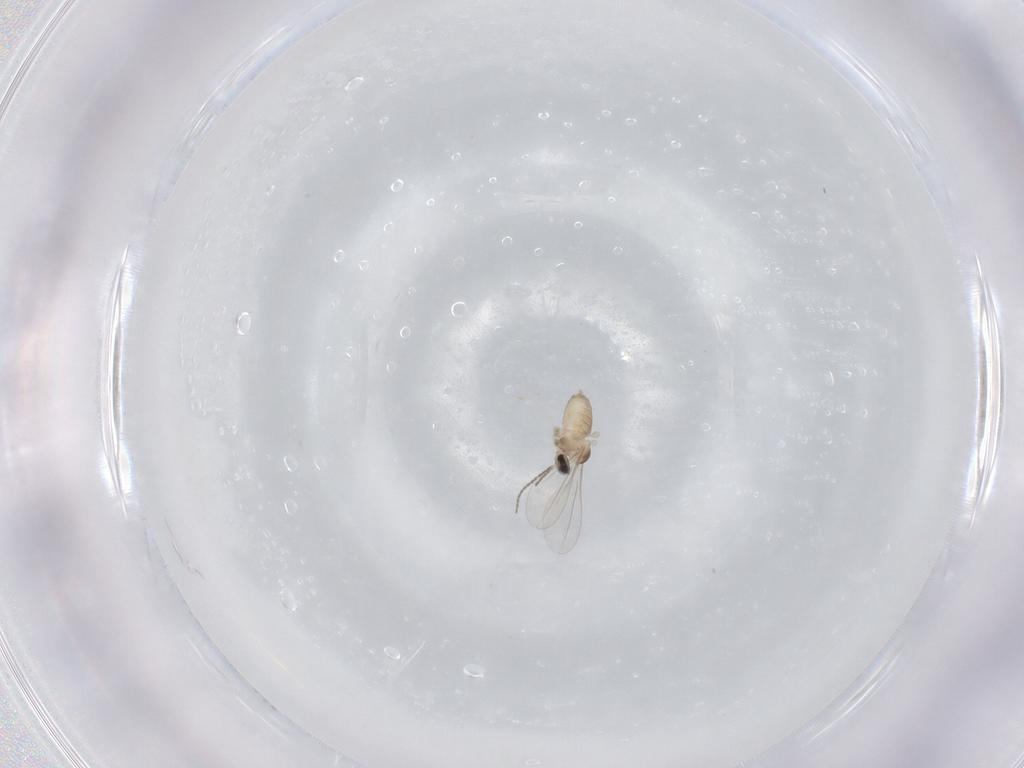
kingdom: Animalia
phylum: Arthropoda
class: Insecta
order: Diptera
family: Cecidomyiidae
